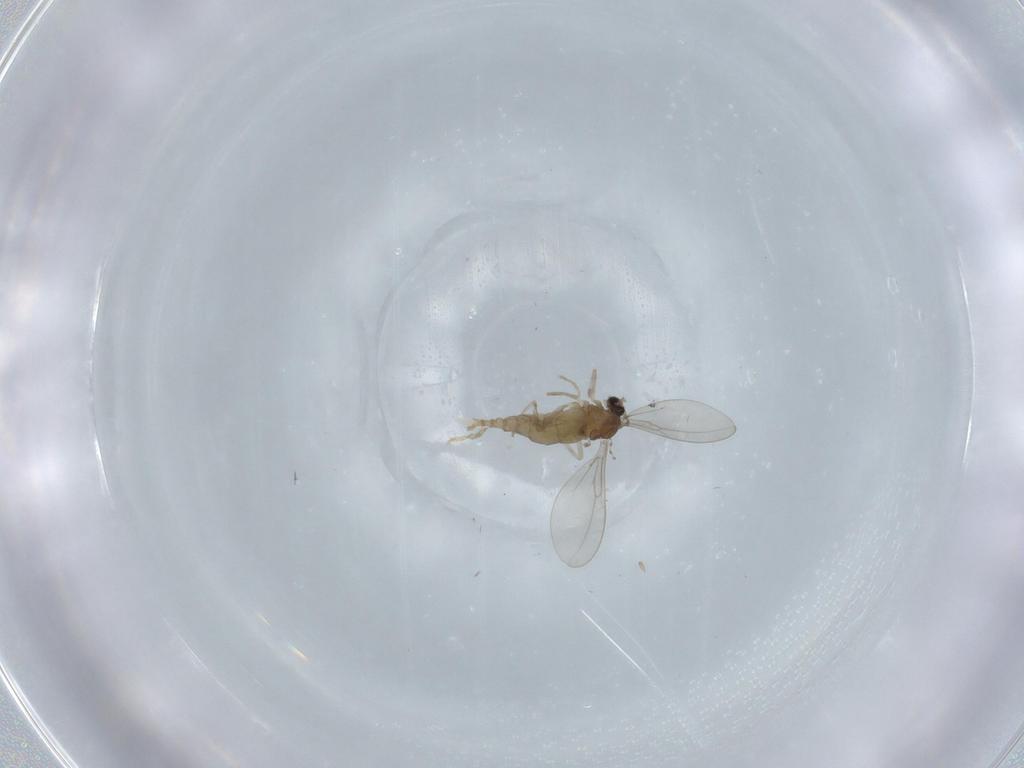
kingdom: Animalia
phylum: Arthropoda
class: Insecta
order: Diptera
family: Cecidomyiidae
